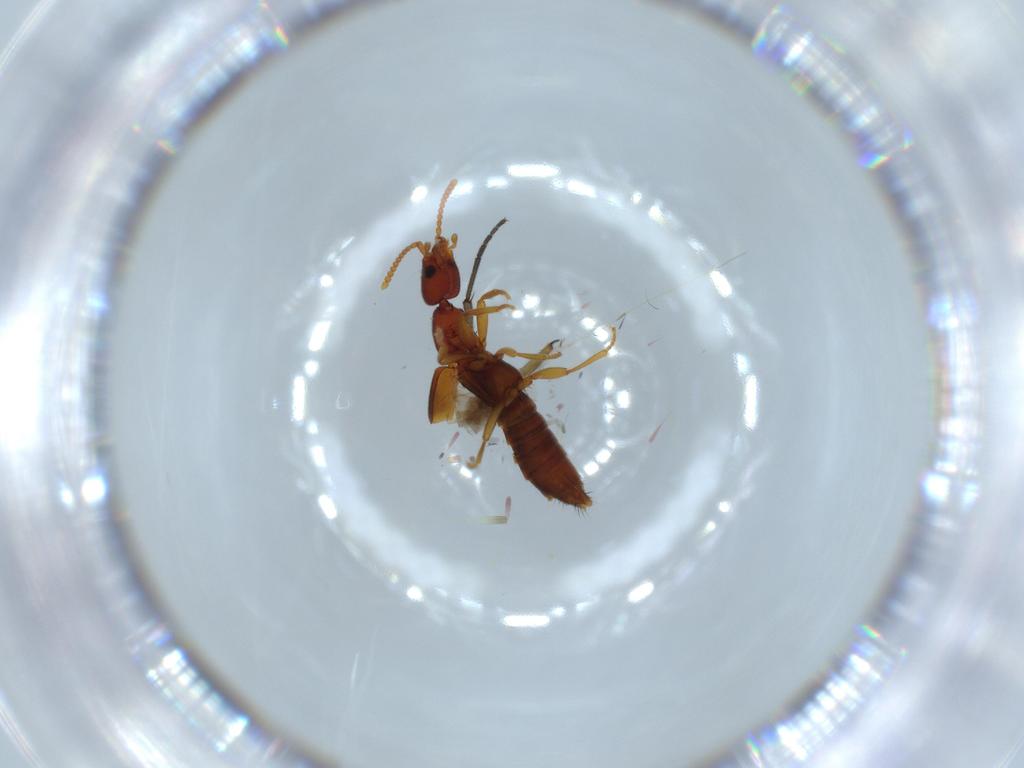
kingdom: Animalia
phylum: Arthropoda
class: Insecta
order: Coleoptera
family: Staphylinidae
